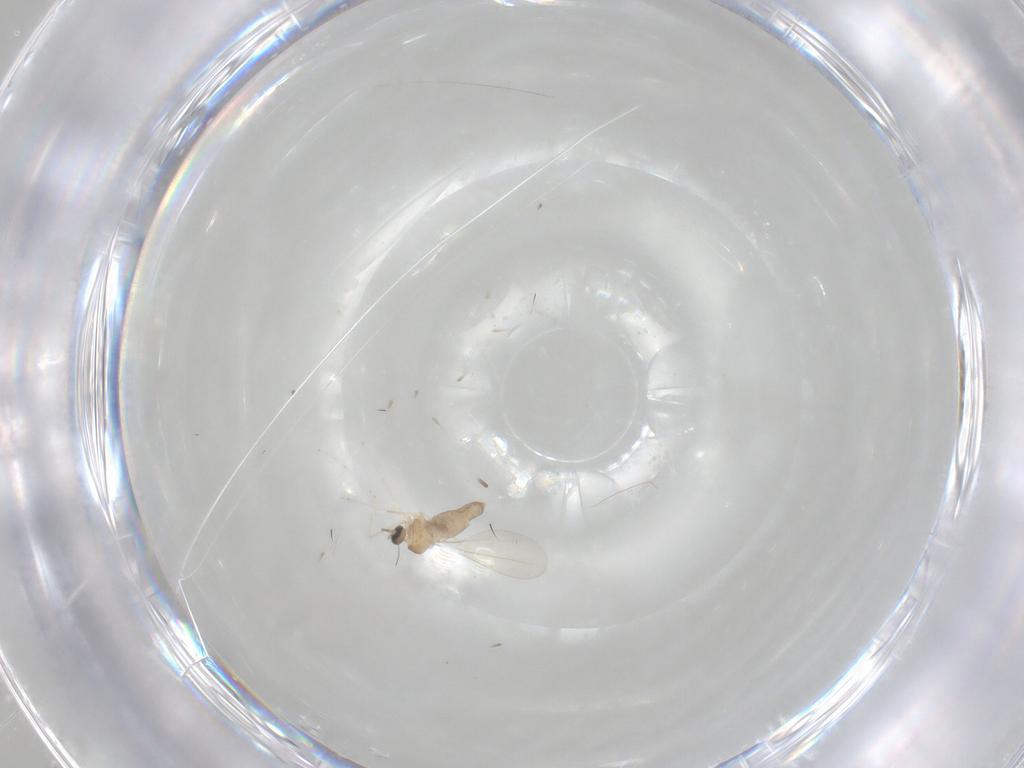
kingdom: Animalia
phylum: Arthropoda
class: Insecta
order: Diptera
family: Cecidomyiidae
